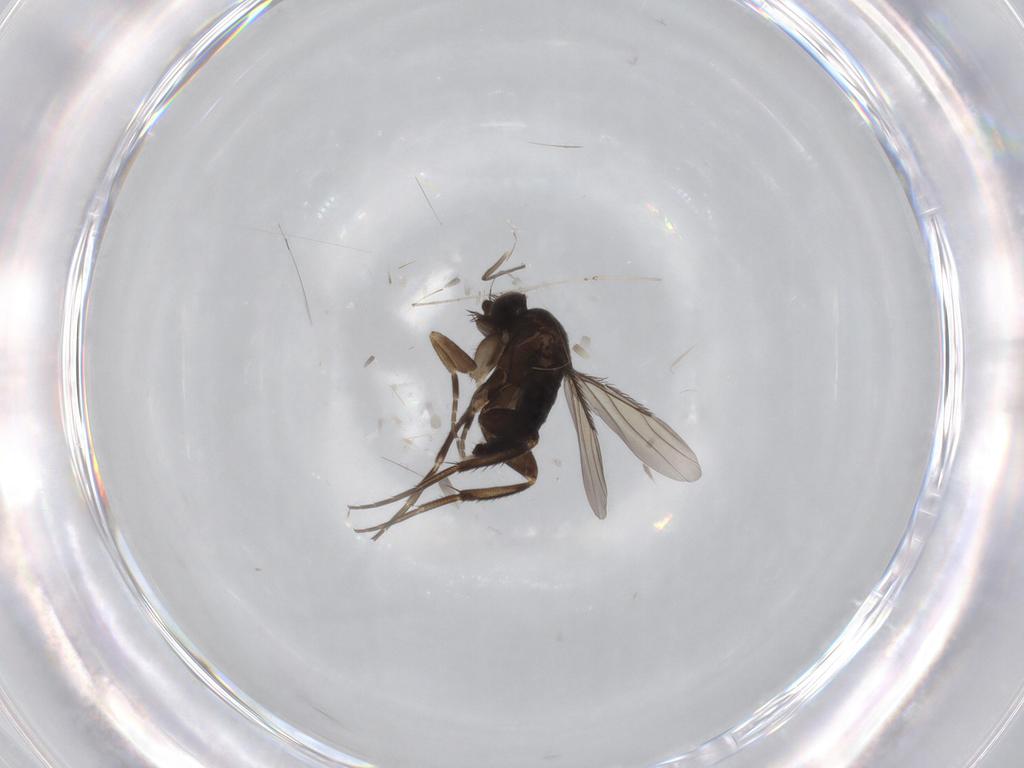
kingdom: Animalia
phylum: Arthropoda
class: Insecta
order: Diptera
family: Phoridae
